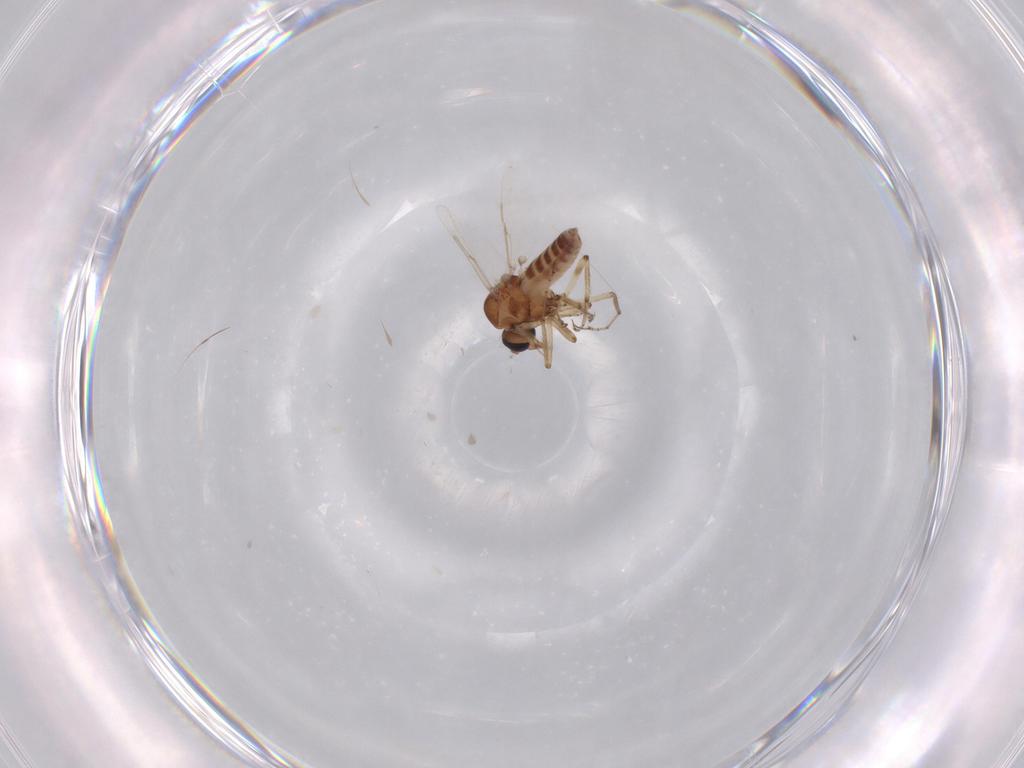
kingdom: Animalia
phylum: Arthropoda
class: Insecta
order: Diptera
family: Ceratopogonidae
